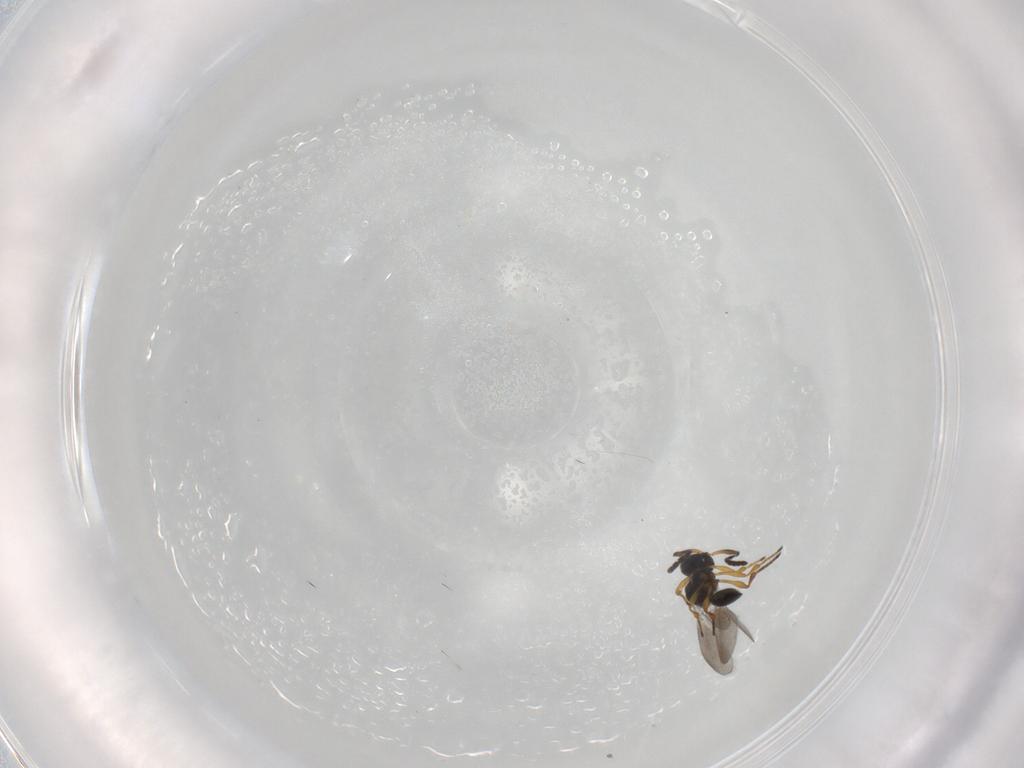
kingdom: Animalia
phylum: Arthropoda
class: Insecta
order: Hymenoptera
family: Platygastridae
